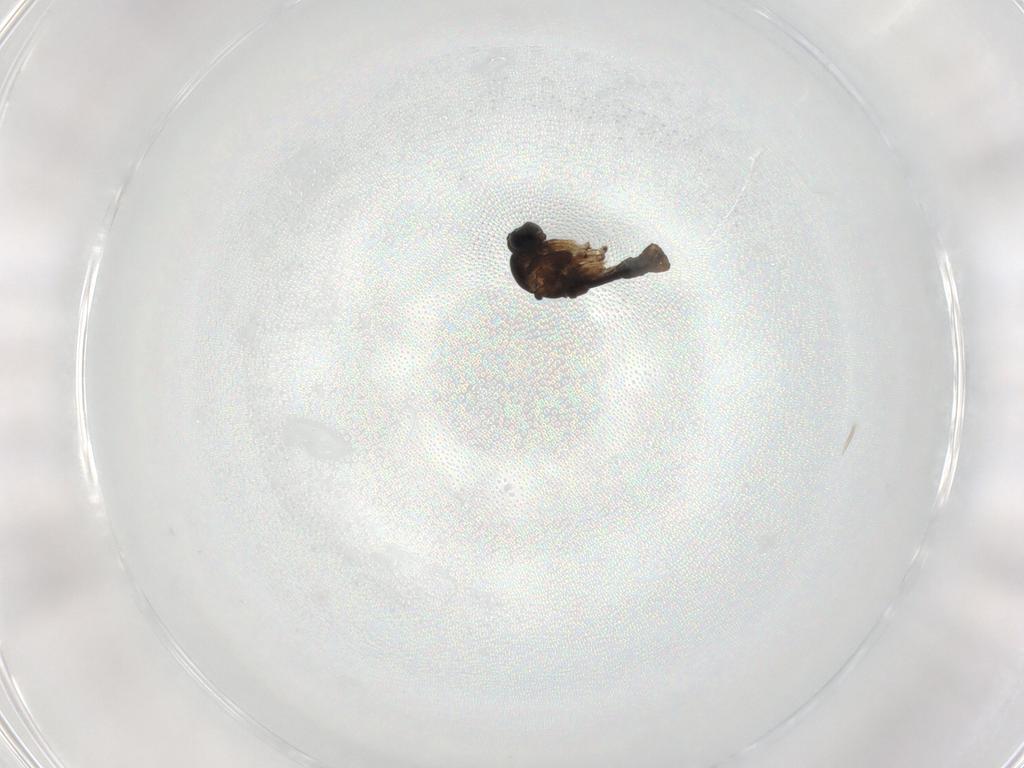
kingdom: Animalia
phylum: Arthropoda
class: Insecta
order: Diptera
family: Sciaridae
